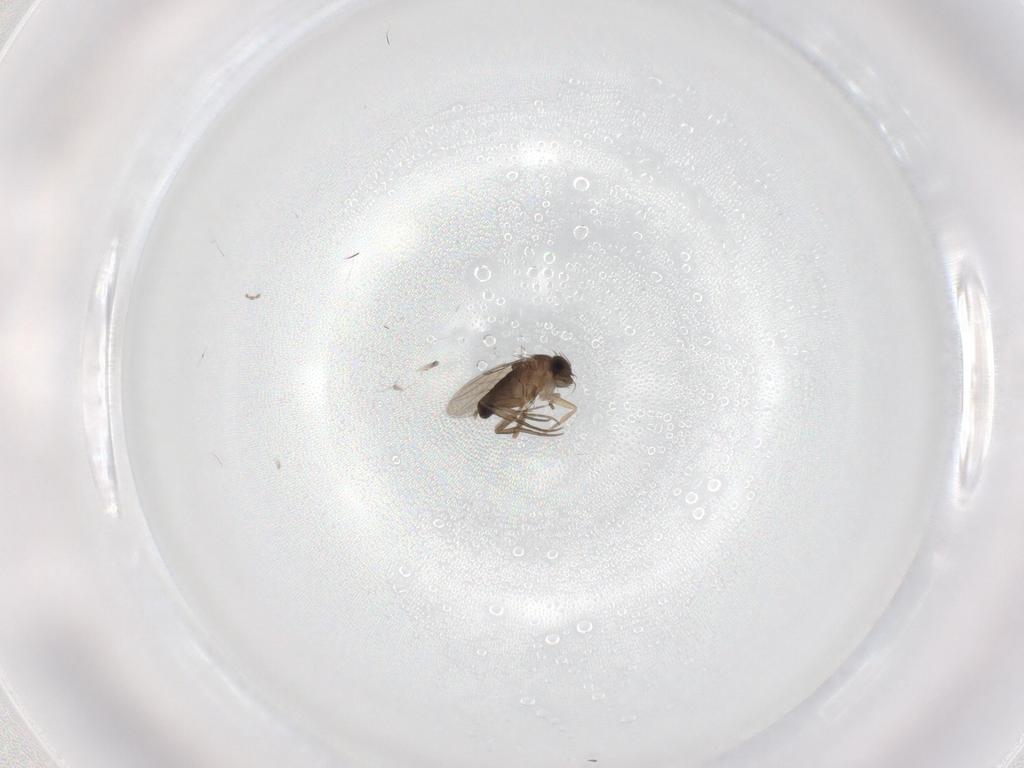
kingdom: Animalia
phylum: Arthropoda
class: Insecta
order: Diptera
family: Phoridae
